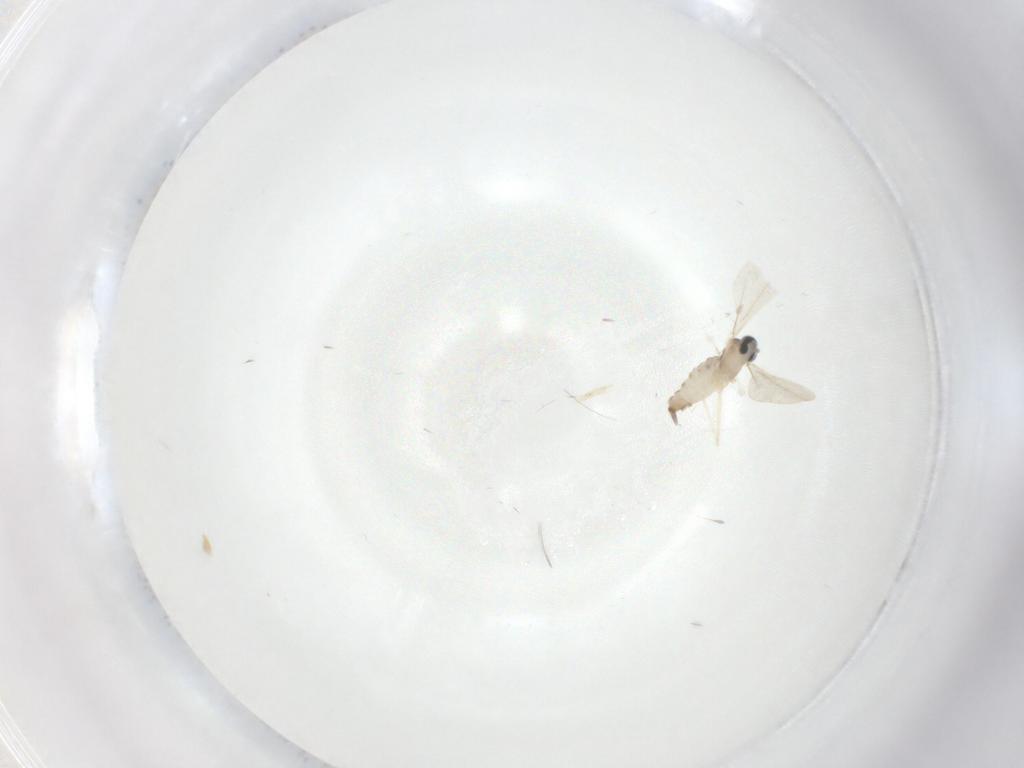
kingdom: Animalia
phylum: Arthropoda
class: Insecta
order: Diptera
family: Cecidomyiidae
